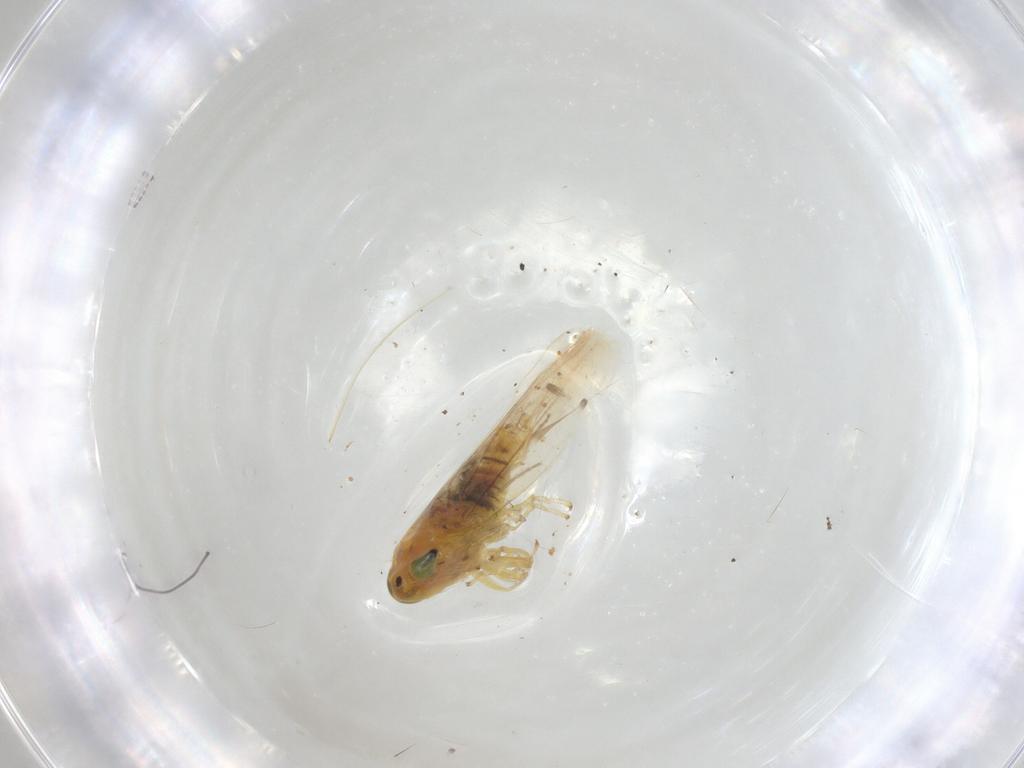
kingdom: Animalia
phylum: Arthropoda
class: Insecta
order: Hemiptera
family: Cicadellidae
